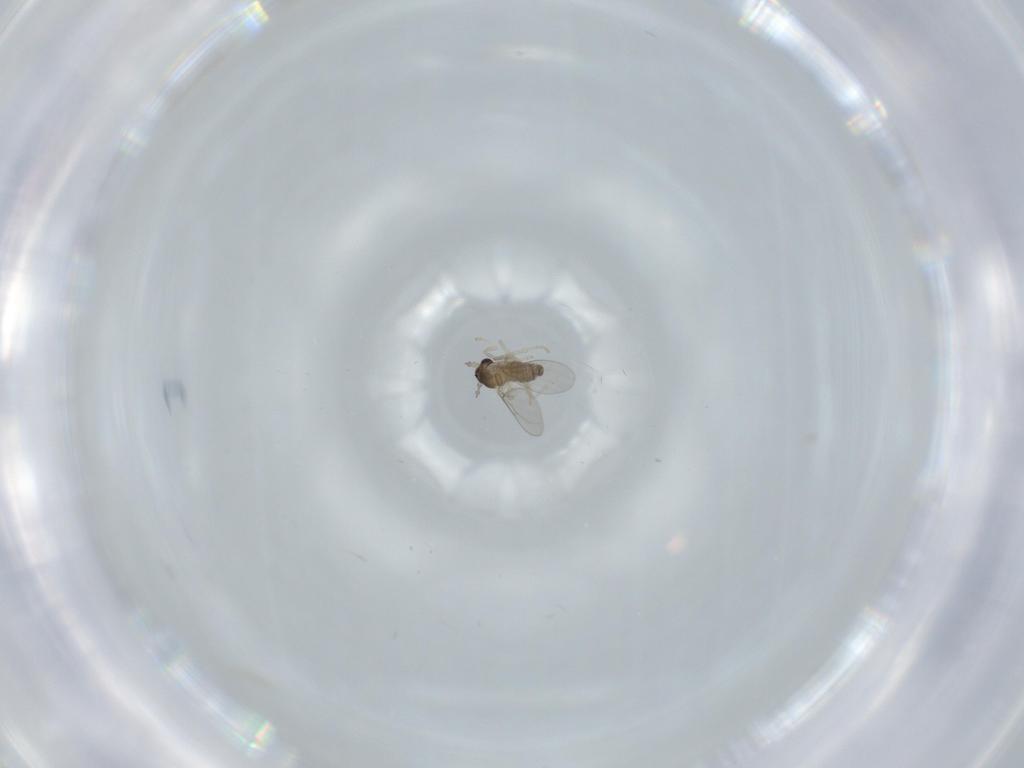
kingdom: Animalia
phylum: Arthropoda
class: Insecta
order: Diptera
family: Cecidomyiidae
